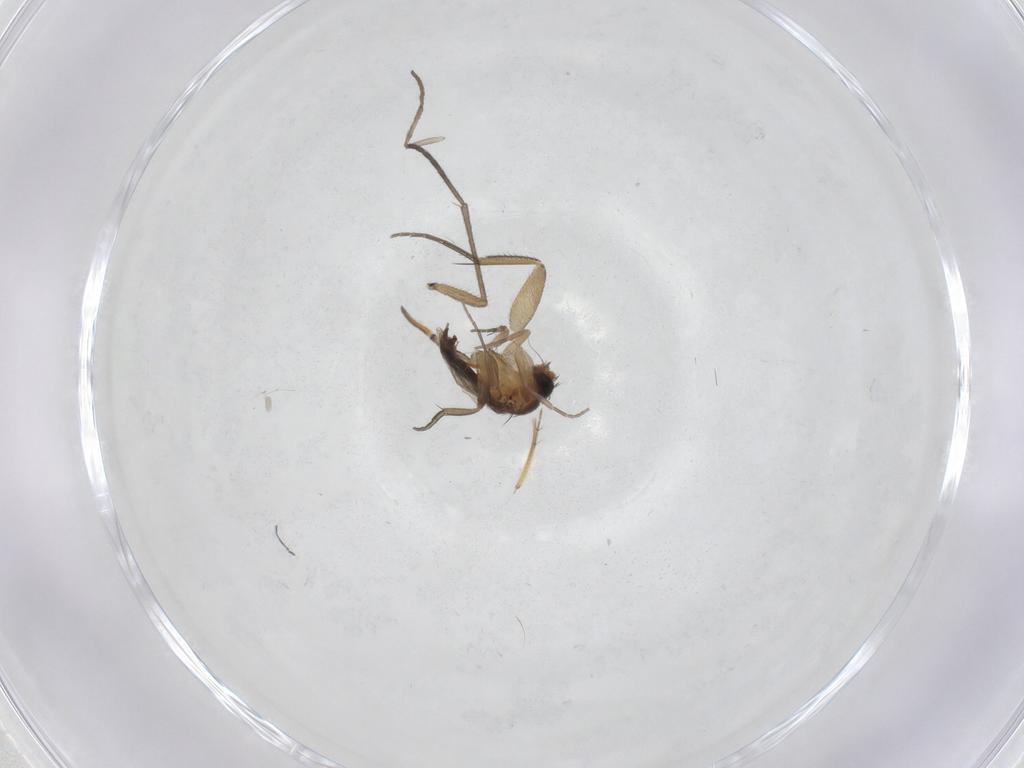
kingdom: Animalia
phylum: Arthropoda
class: Insecta
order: Diptera
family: Phoridae
